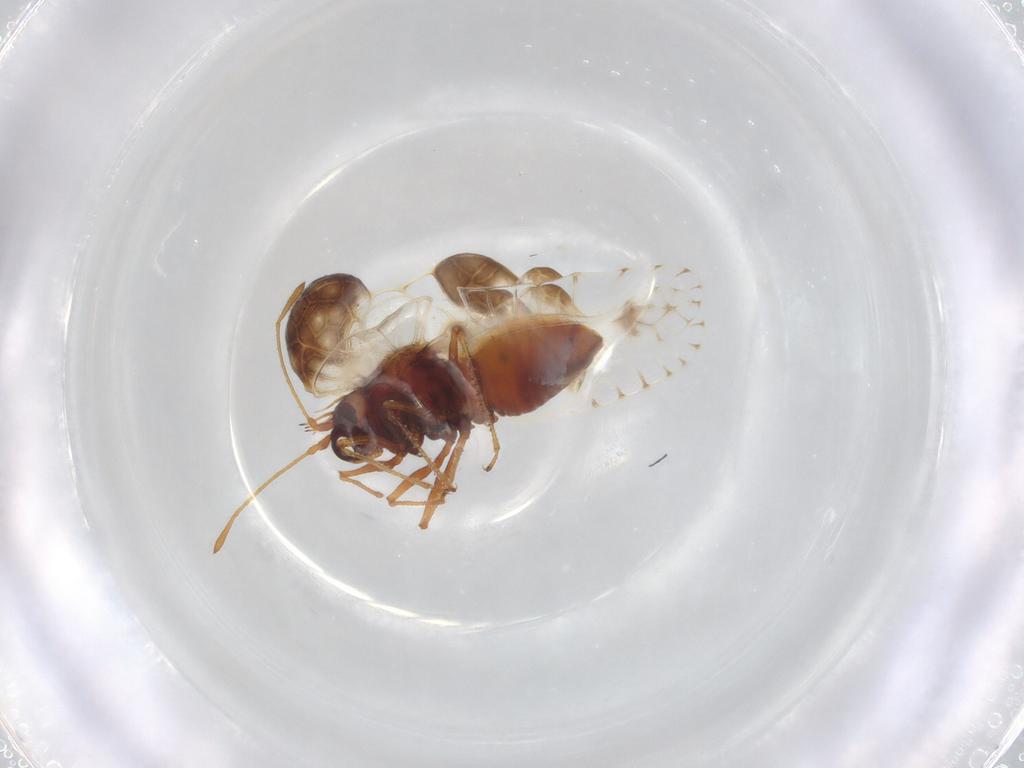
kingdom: Animalia
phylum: Arthropoda
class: Insecta
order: Hemiptera
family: Tingidae
